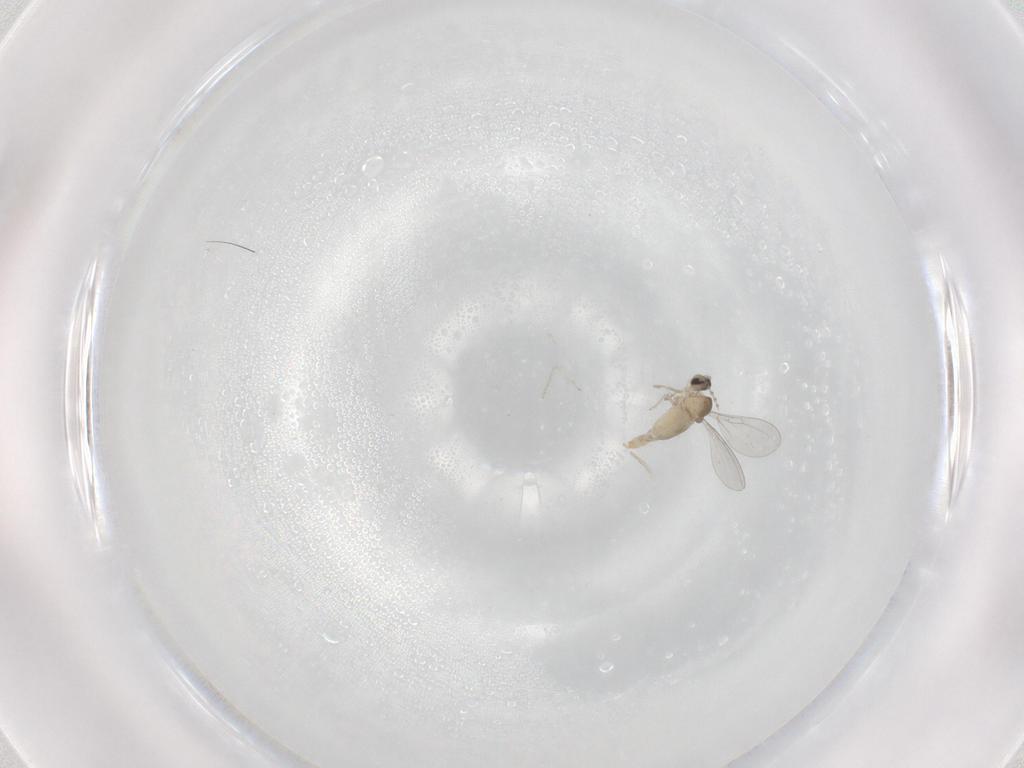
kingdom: Animalia
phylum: Arthropoda
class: Insecta
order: Diptera
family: Cecidomyiidae
